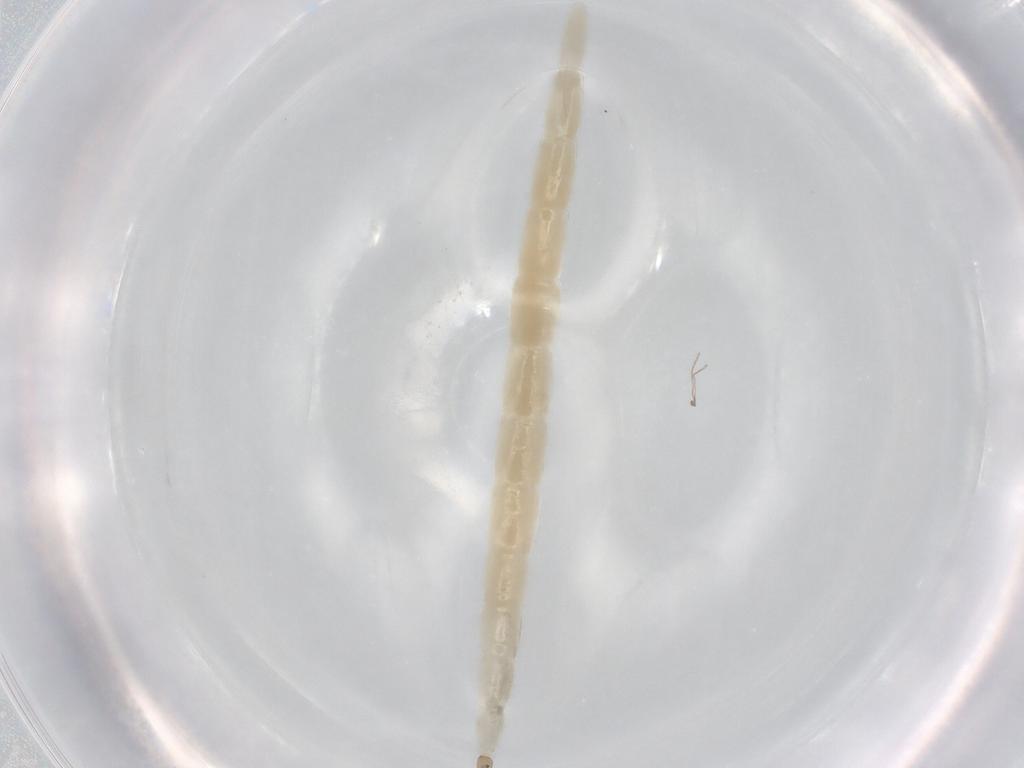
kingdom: Animalia
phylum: Arthropoda
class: Insecta
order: Diptera
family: Ceratopogonidae
